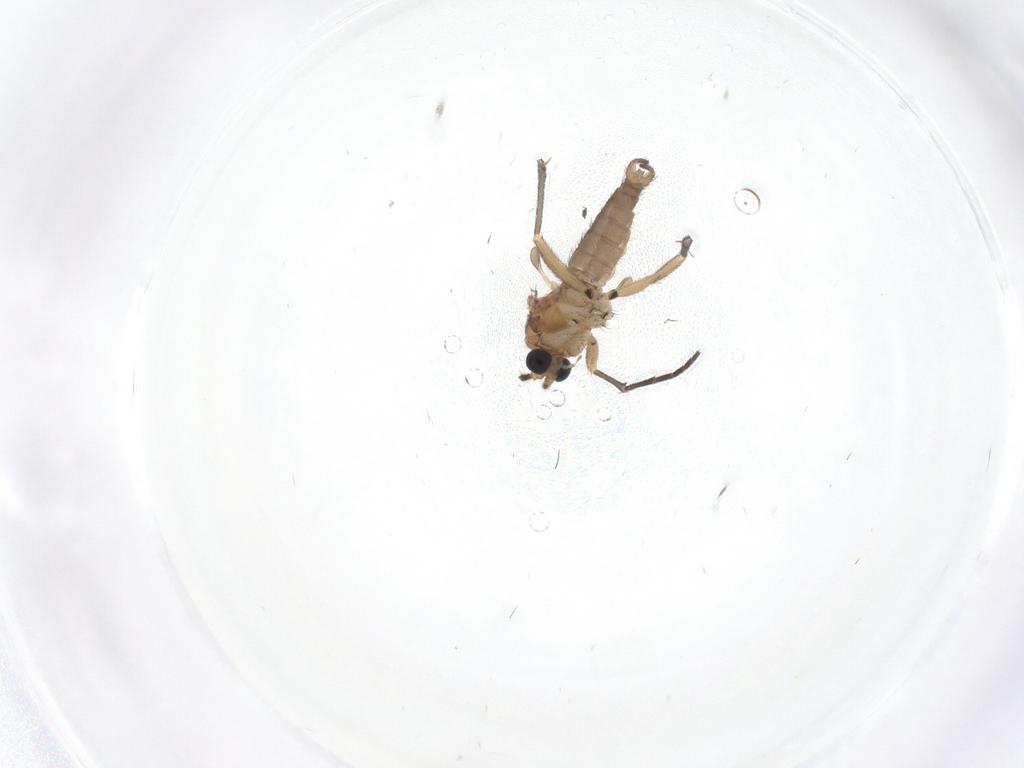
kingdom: Animalia
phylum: Arthropoda
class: Insecta
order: Diptera
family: Sciaridae
